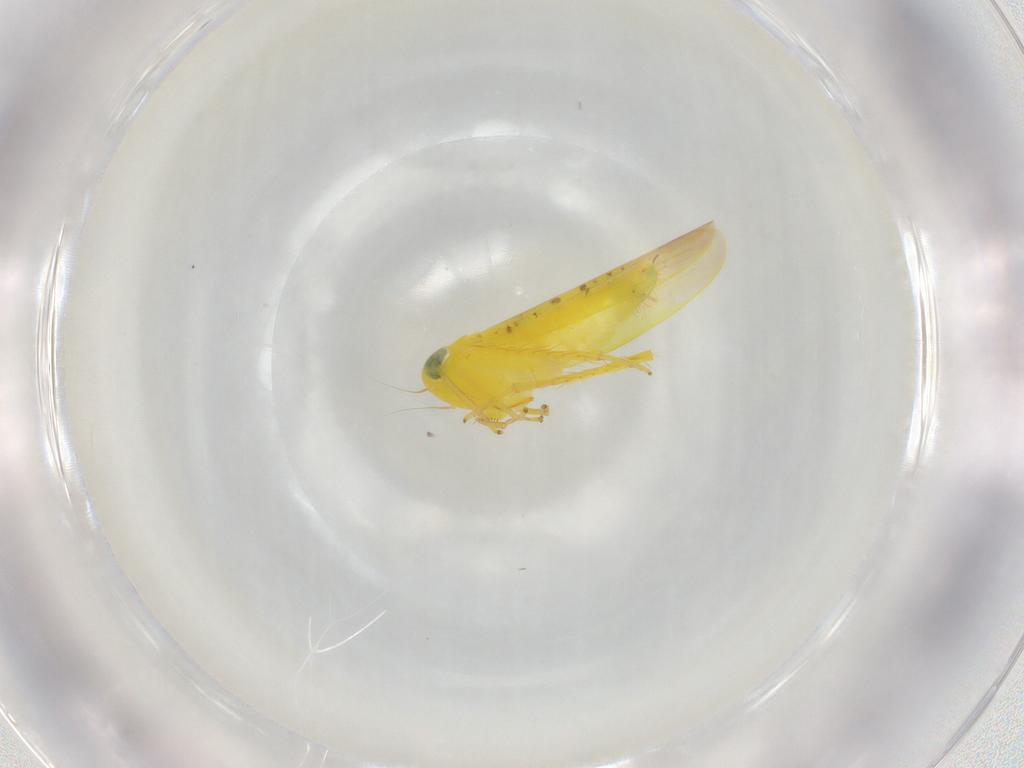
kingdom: Animalia
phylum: Arthropoda
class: Insecta
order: Hemiptera
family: Cicadellidae
